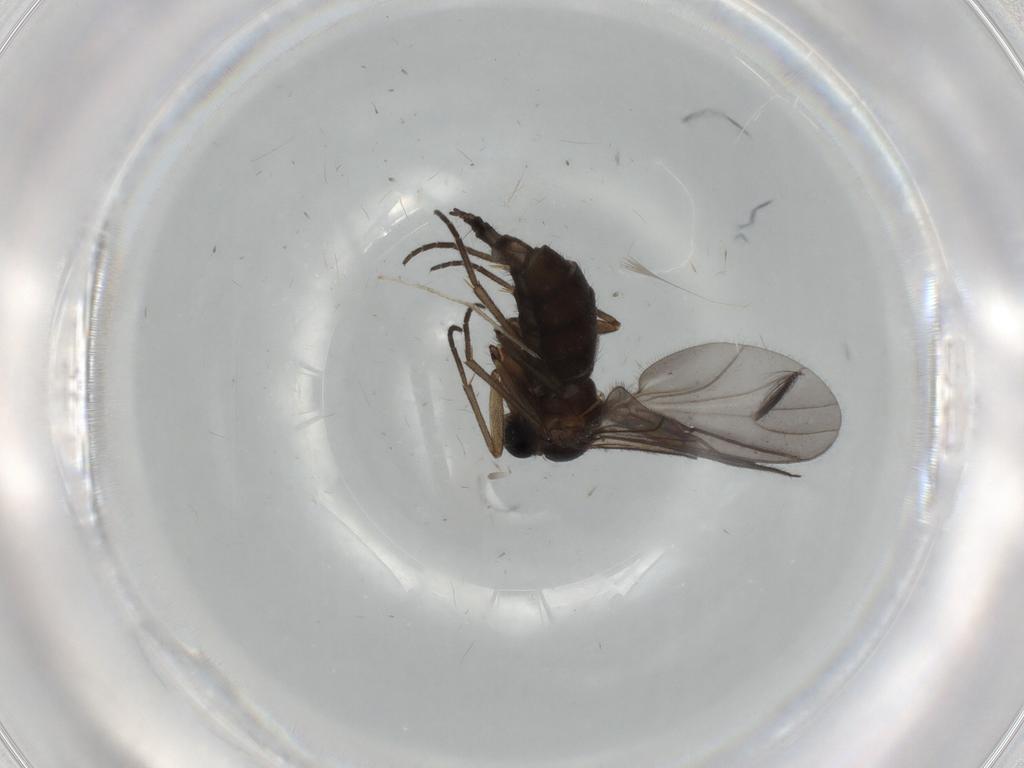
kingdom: Animalia
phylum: Arthropoda
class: Insecta
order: Diptera
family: Sciaridae
